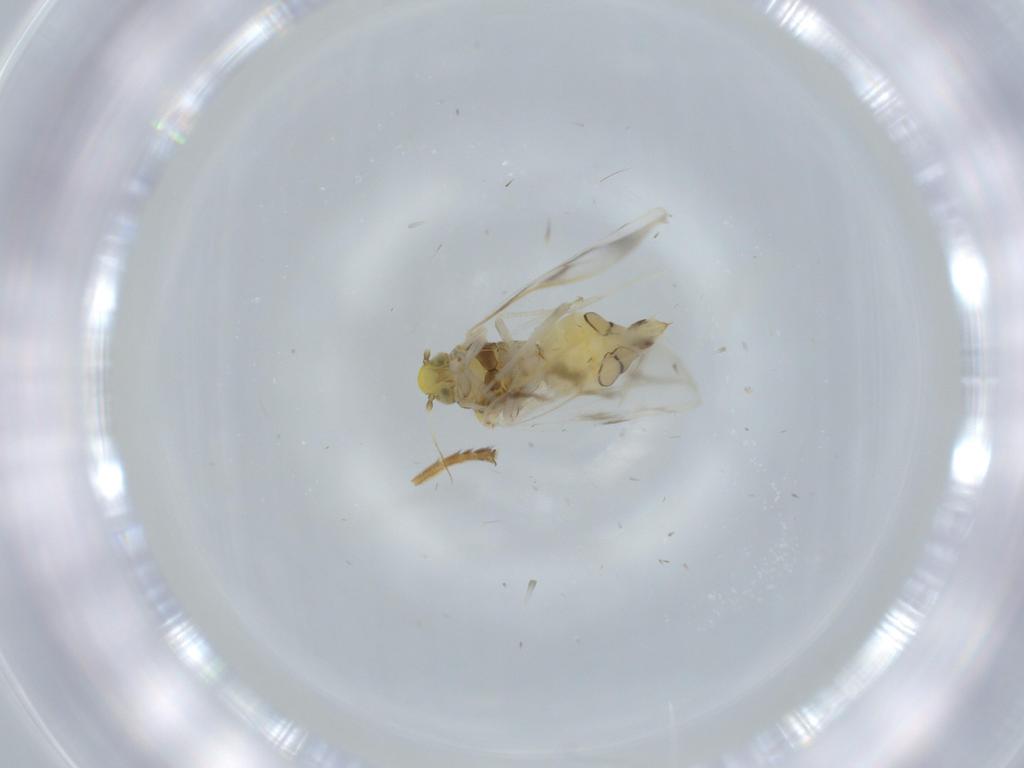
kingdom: Animalia
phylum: Arthropoda
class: Insecta
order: Hemiptera
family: Aleyrodidae
